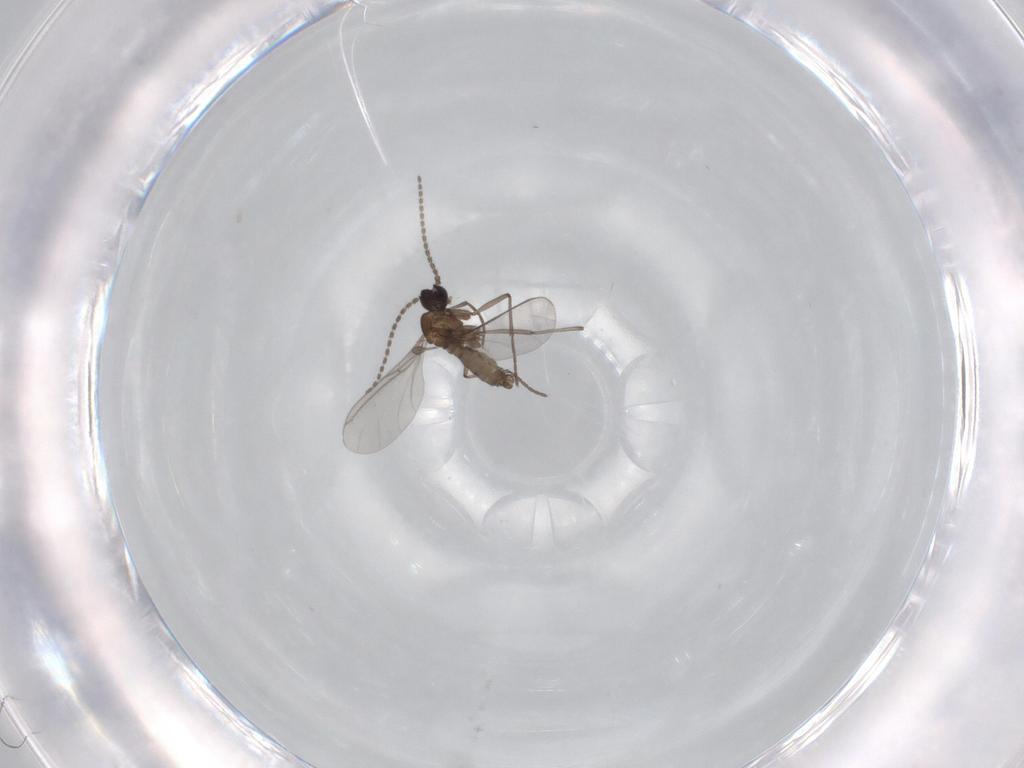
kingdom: Animalia
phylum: Arthropoda
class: Insecta
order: Diptera
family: Sciaridae
